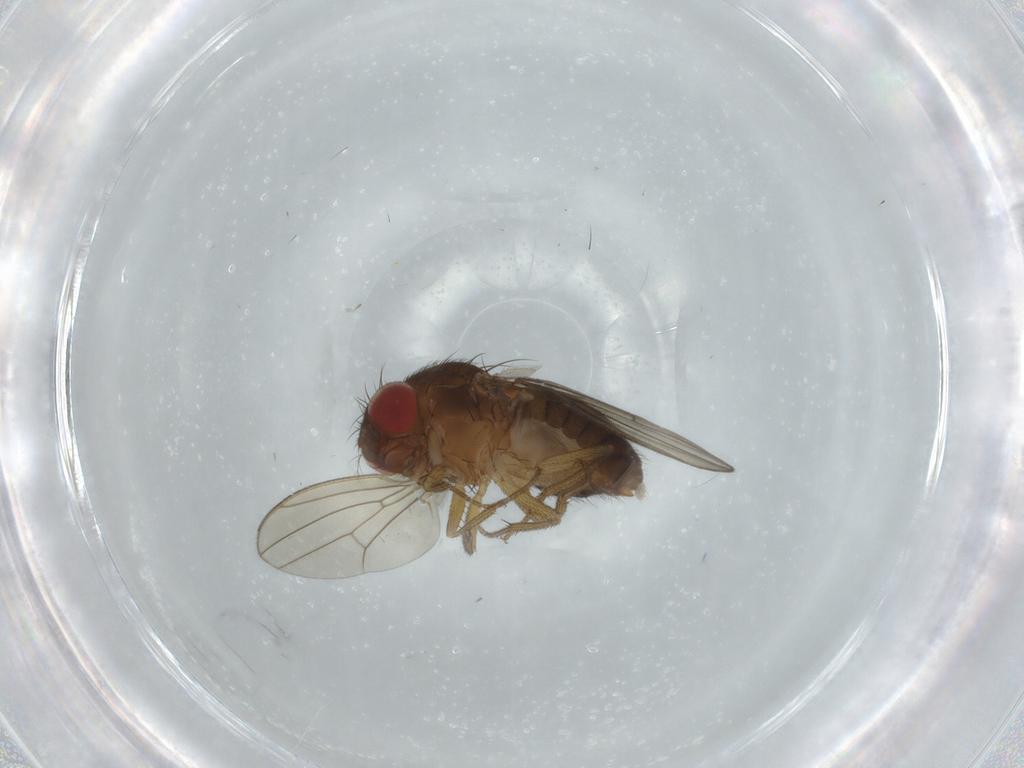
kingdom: Animalia
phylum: Arthropoda
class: Insecta
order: Diptera
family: Drosophilidae
